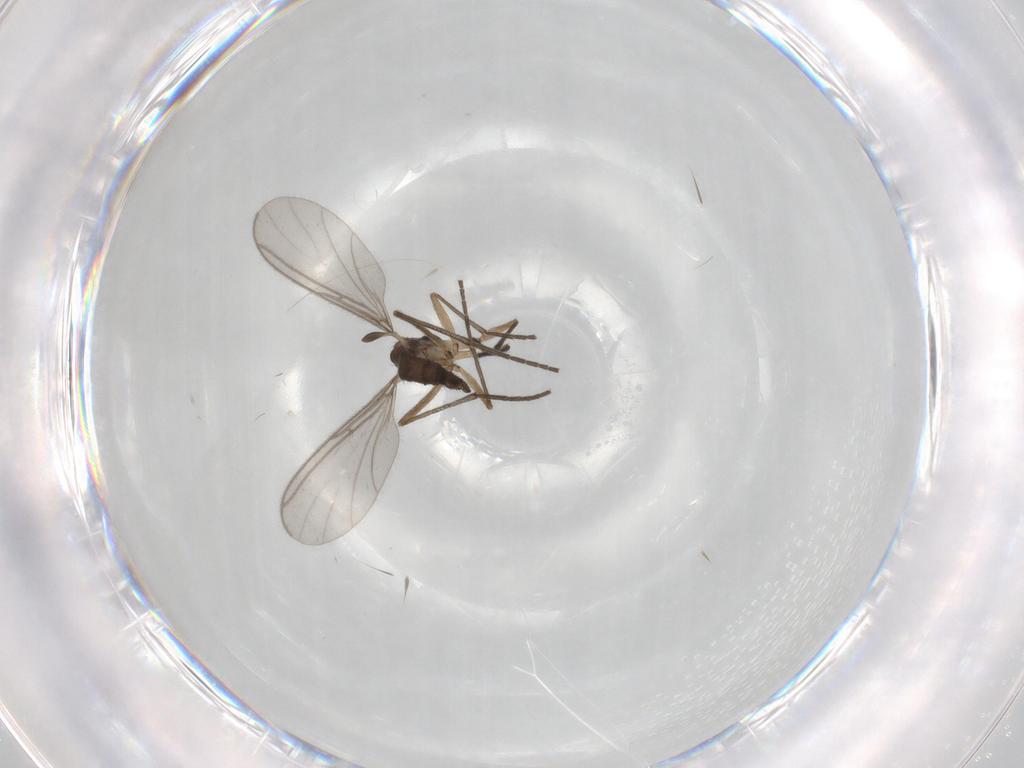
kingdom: Animalia
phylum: Arthropoda
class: Insecta
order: Diptera
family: Sciaridae
